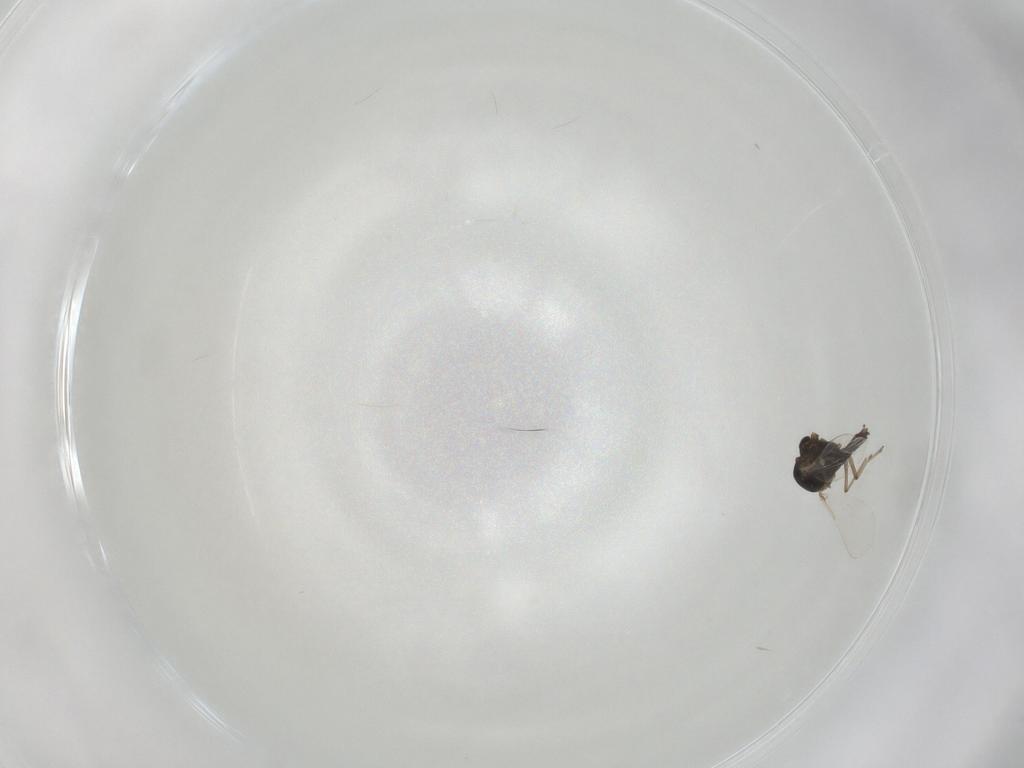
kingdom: Animalia
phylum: Arthropoda
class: Insecta
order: Diptera
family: Chironomidae
